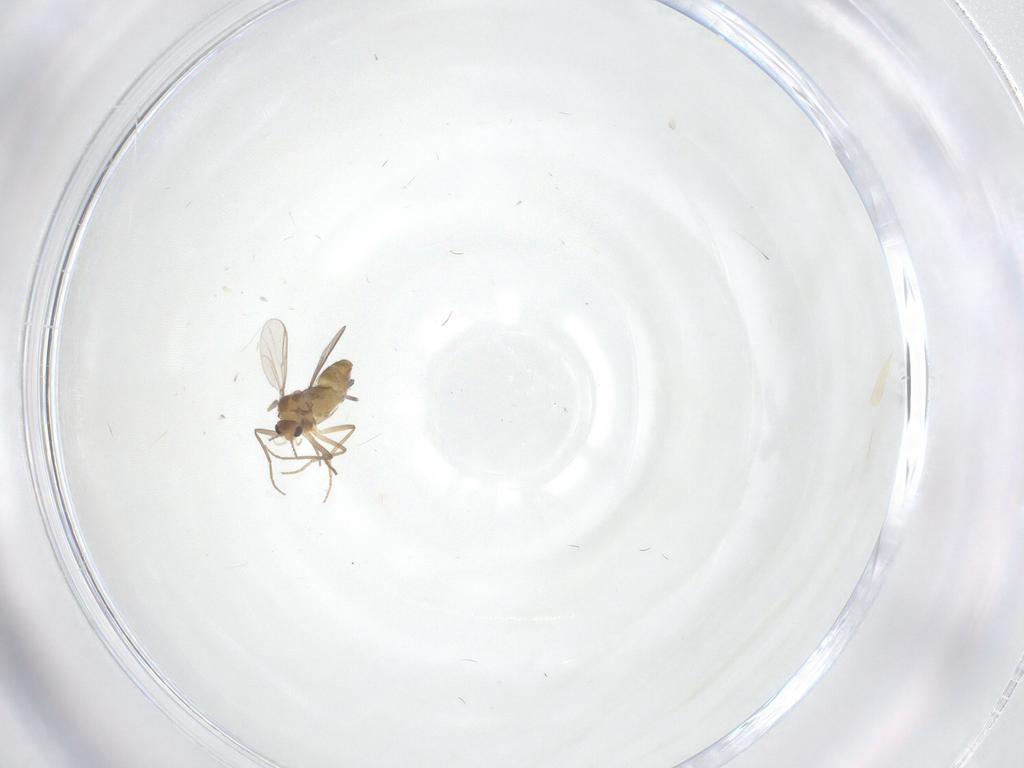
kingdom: Animalia
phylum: Arthropoda
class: Insecta
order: Diptera
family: Chironomidae
